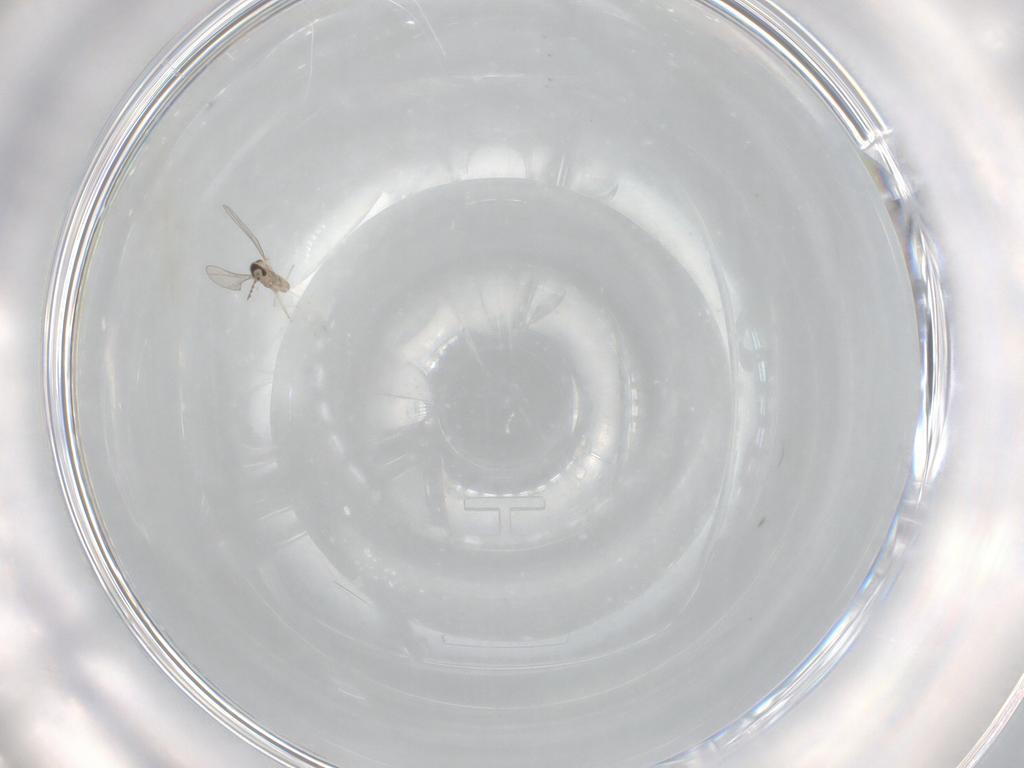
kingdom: Animalia
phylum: Arthropoda
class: Insecta
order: Diptera
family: Cecidomyiidae
